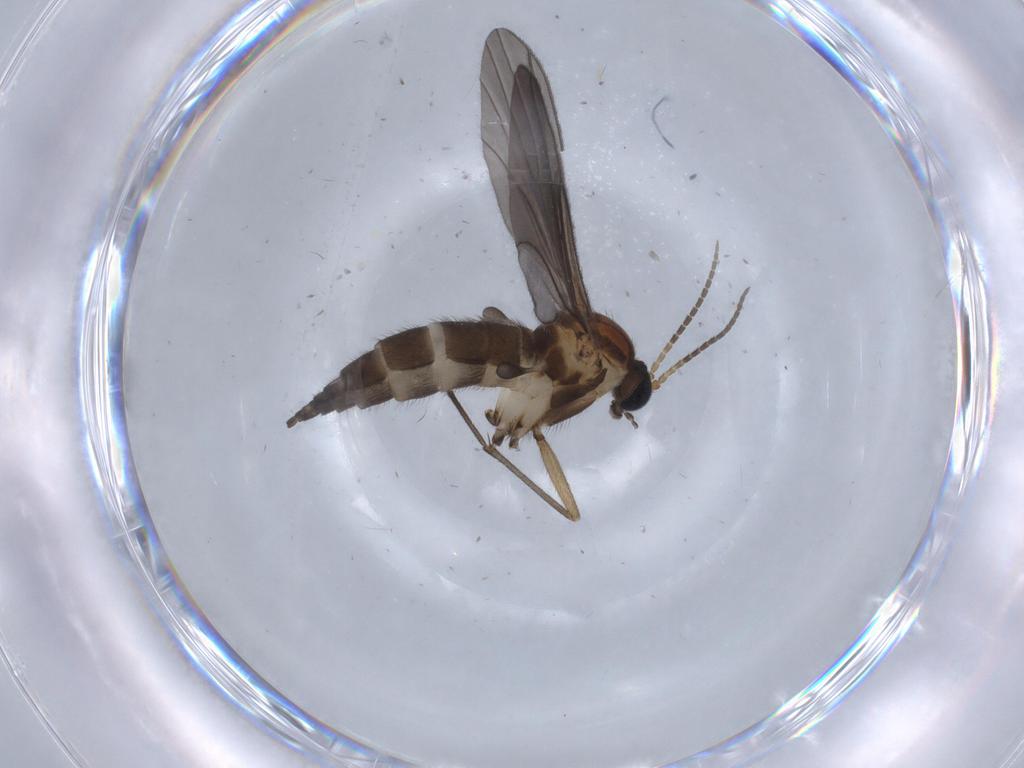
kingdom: Animalia
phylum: Arthropoda
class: Insecta
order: Diptera
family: Sciaridae
